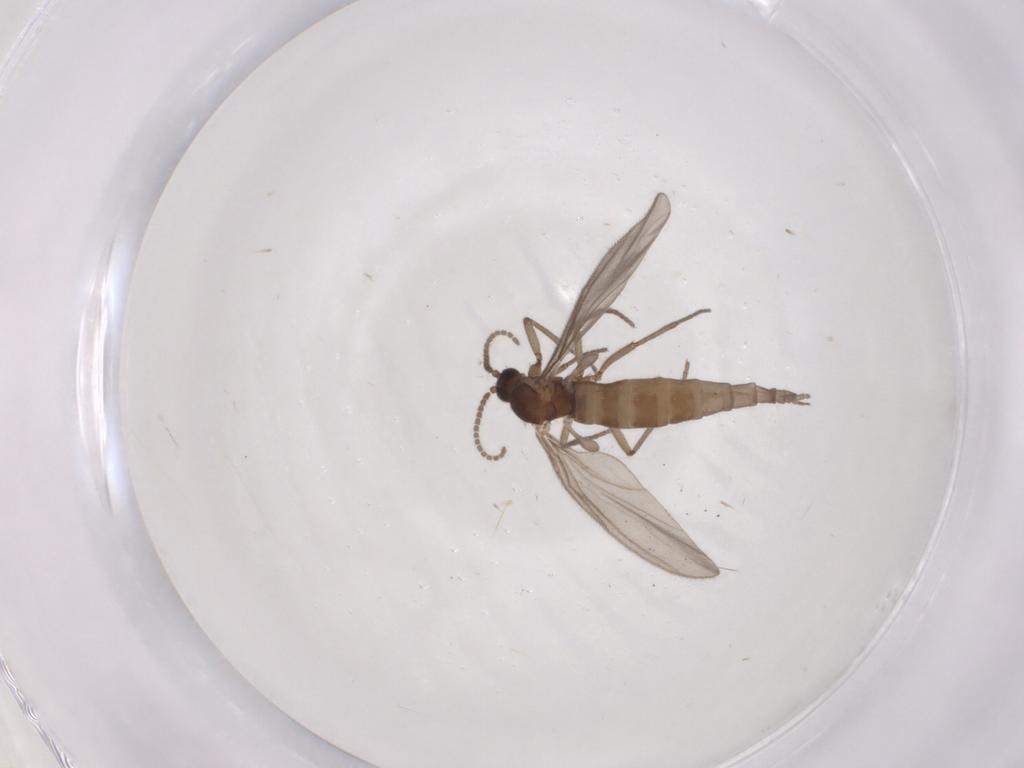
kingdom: Animalia
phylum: Arthropoda
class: Insecta
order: Diptera
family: Sciaridae
